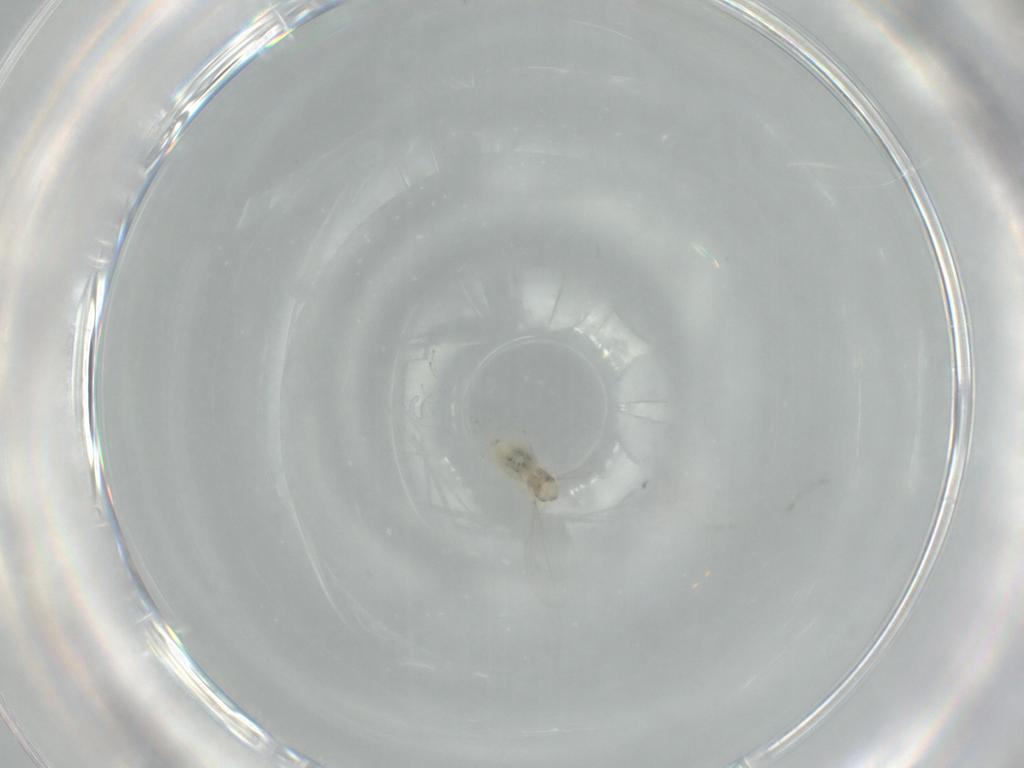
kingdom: Animalia
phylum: Arthropoda
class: Insecta
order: Diptera
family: Cecidomyiidae
